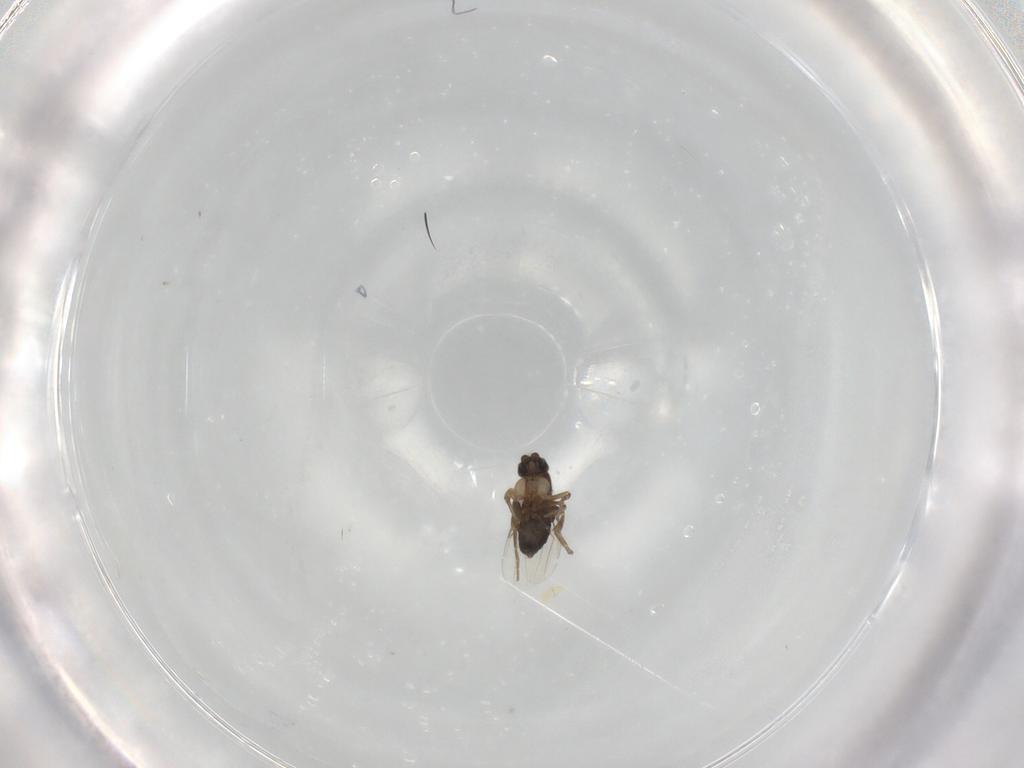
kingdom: Animalia
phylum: Arthropoda
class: Insecta
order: Diptera
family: Phoridae
